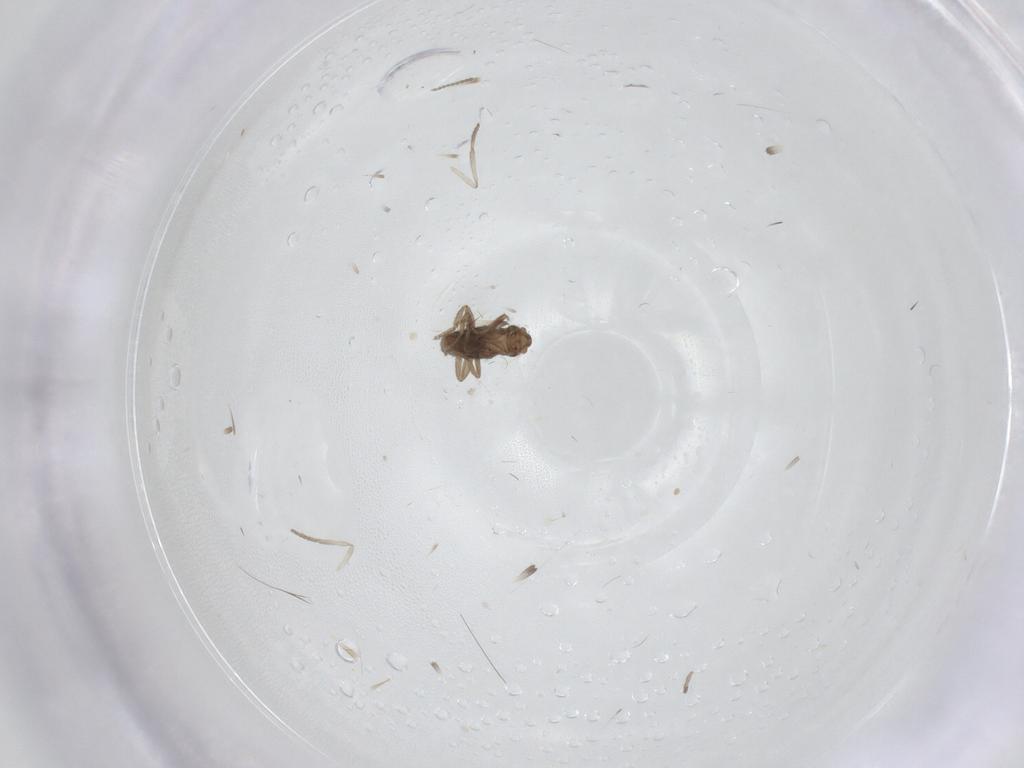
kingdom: Animalia
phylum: Arthropoda
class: Insecta
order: Diptera
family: Phoridae
